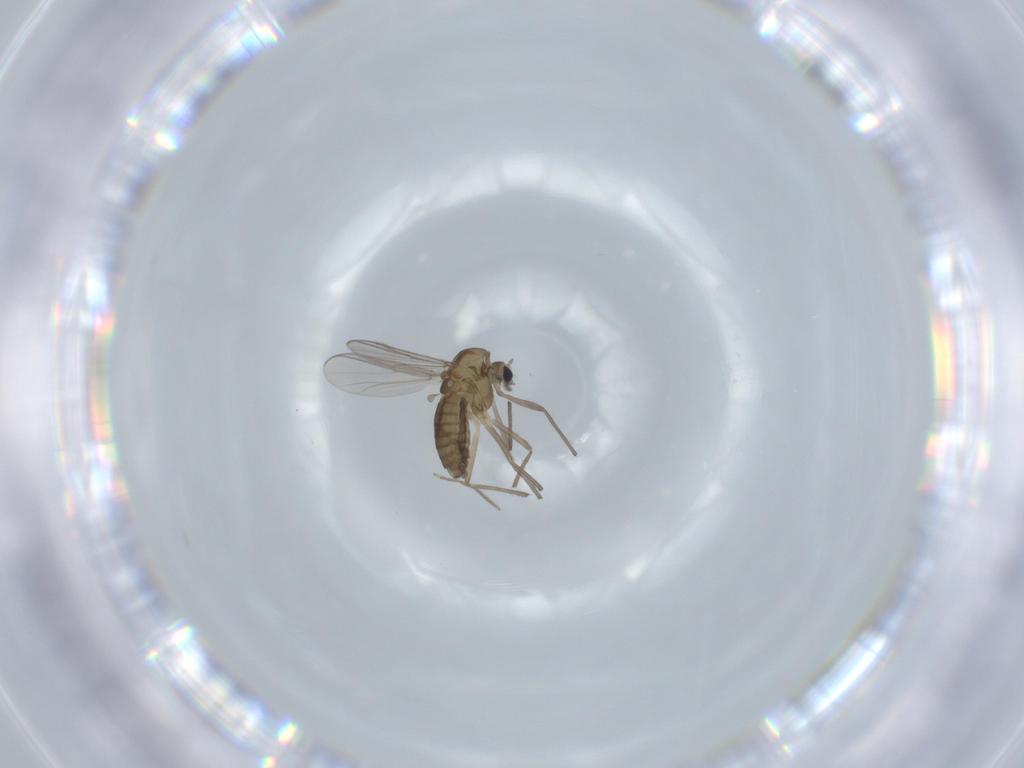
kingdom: Animalia
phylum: Arthropoda
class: Insecta
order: Diptera
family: Chironomidae
